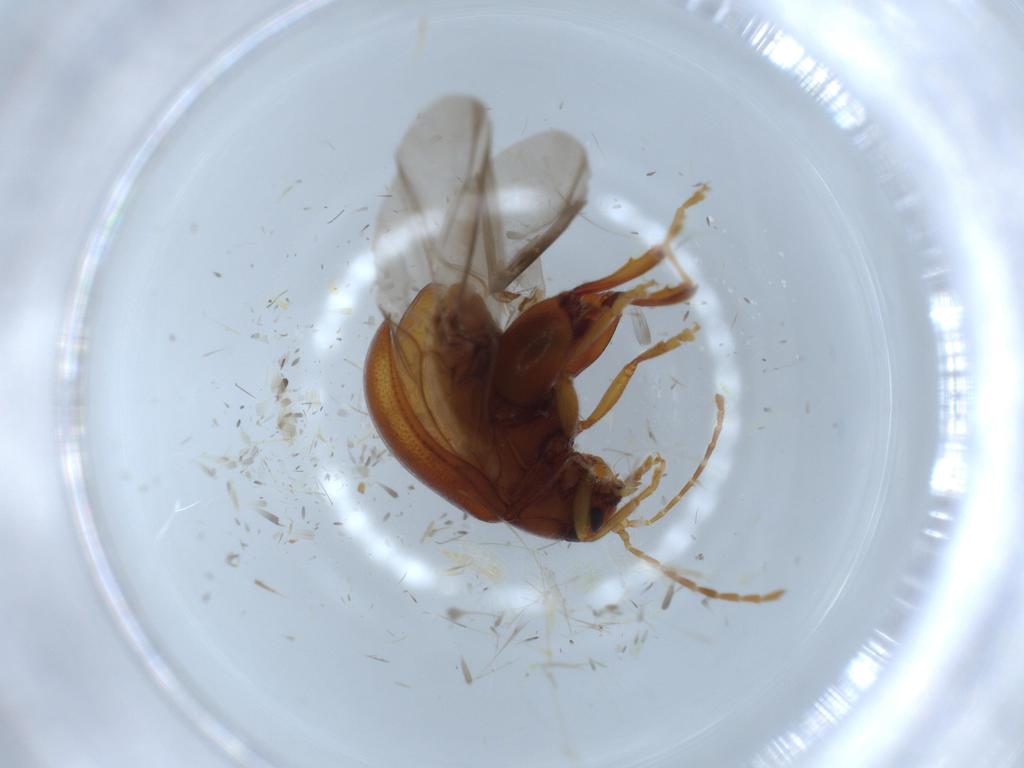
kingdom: Animalia
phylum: Arthropoda
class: Insecta
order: Coleoptera
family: Chrysomelidae
